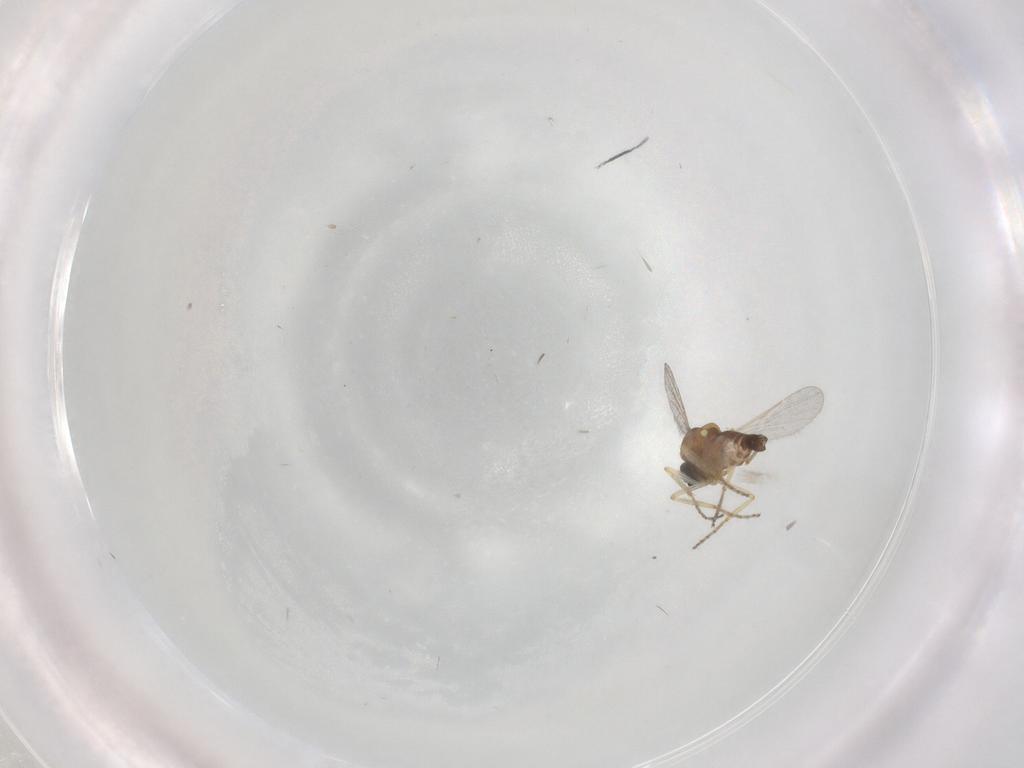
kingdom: Animalia
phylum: Arthropoda
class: Insecta
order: Diptera
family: Ceratopogonidae
